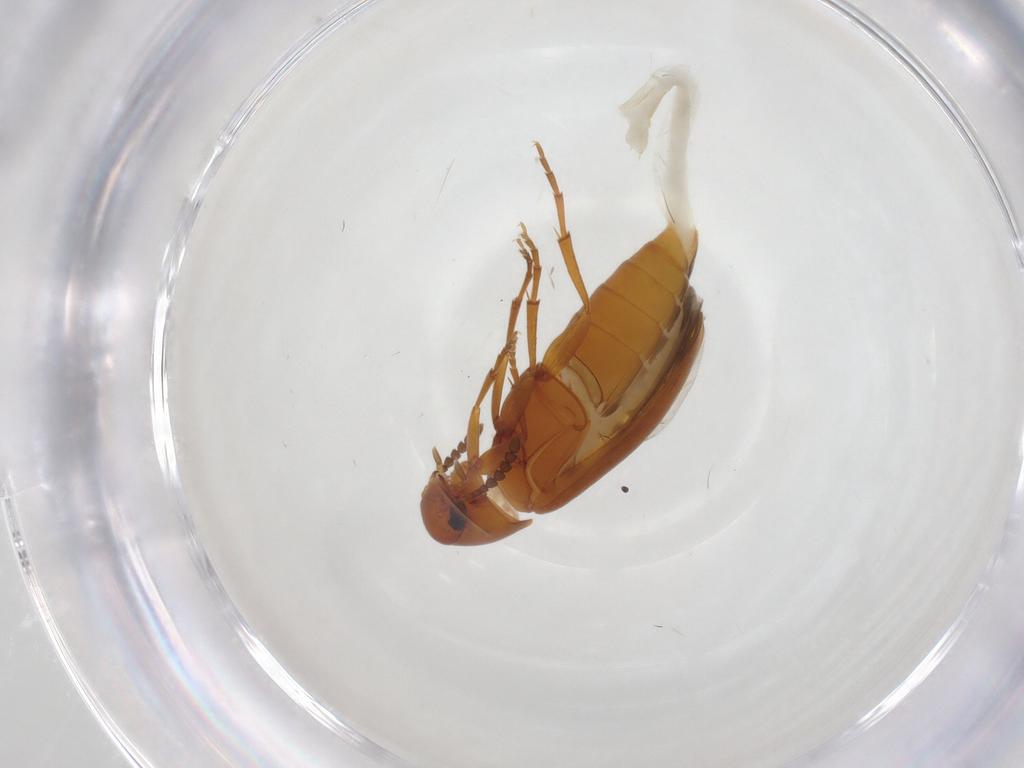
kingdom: Animalia
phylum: Arthropoda
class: Insecta
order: Coleoptera
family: Scraptiidae
